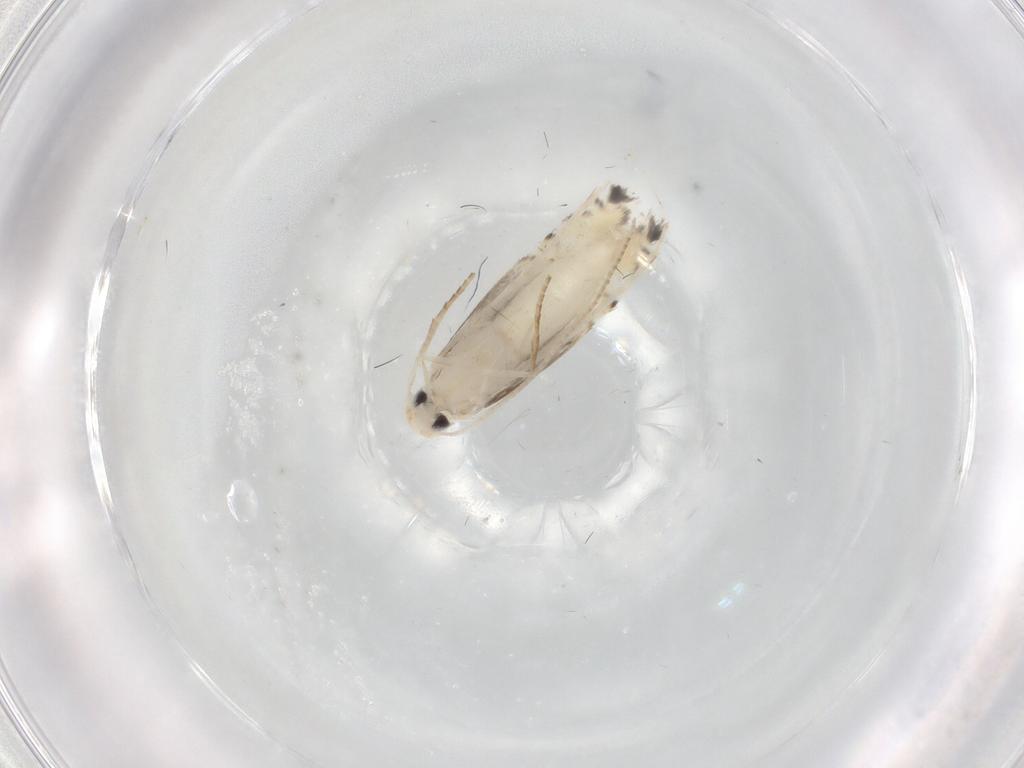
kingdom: Animalia
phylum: Arthropoda
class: Insecta
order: Lepidoptera
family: Gracillariidae
